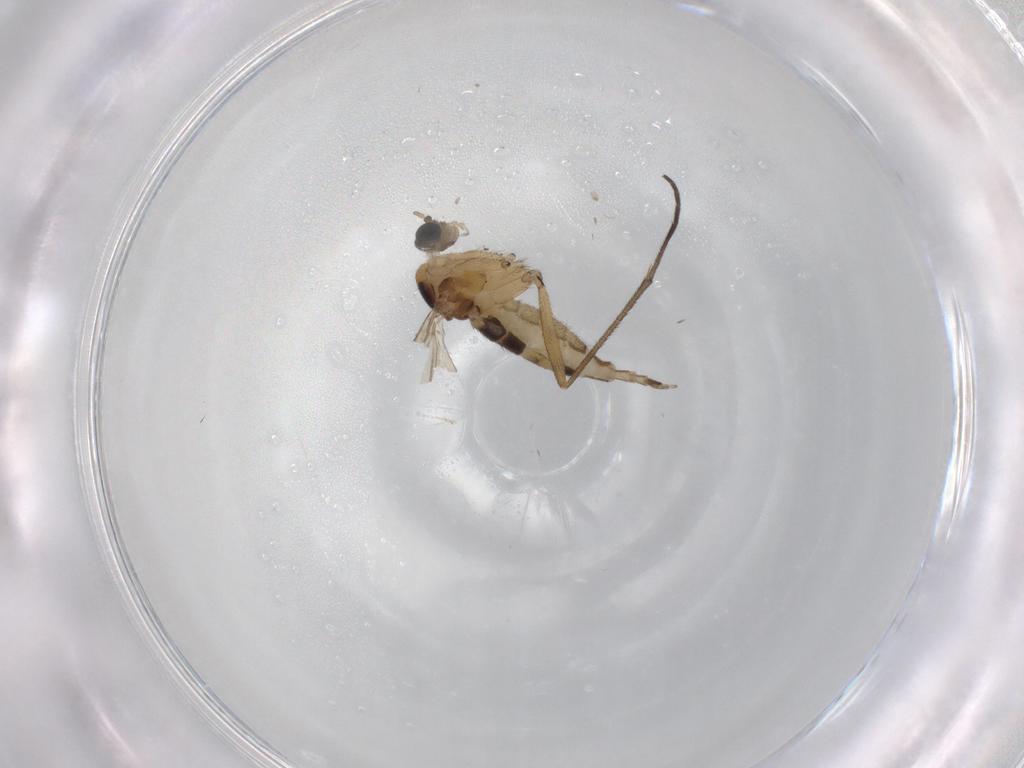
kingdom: Animalia
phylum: Arthropoda
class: Insecta
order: Diptera
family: Sciaridae
